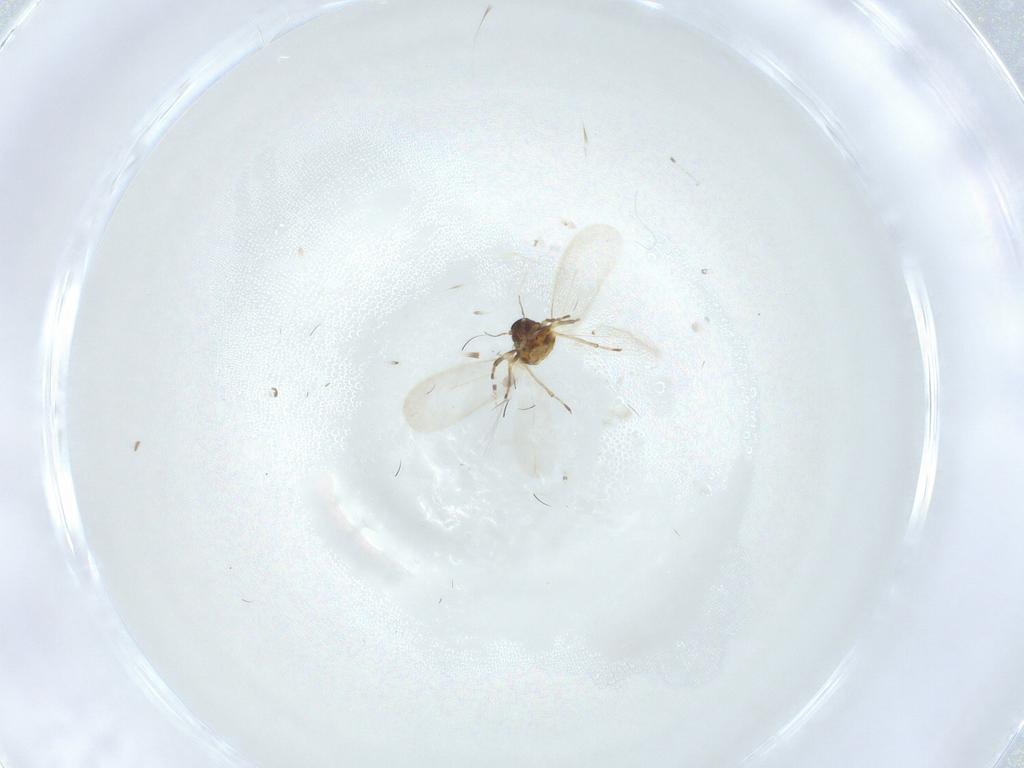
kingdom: Animalia
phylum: Arthropoda
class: Insecta
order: Hemiptera
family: Aleyrodidae
